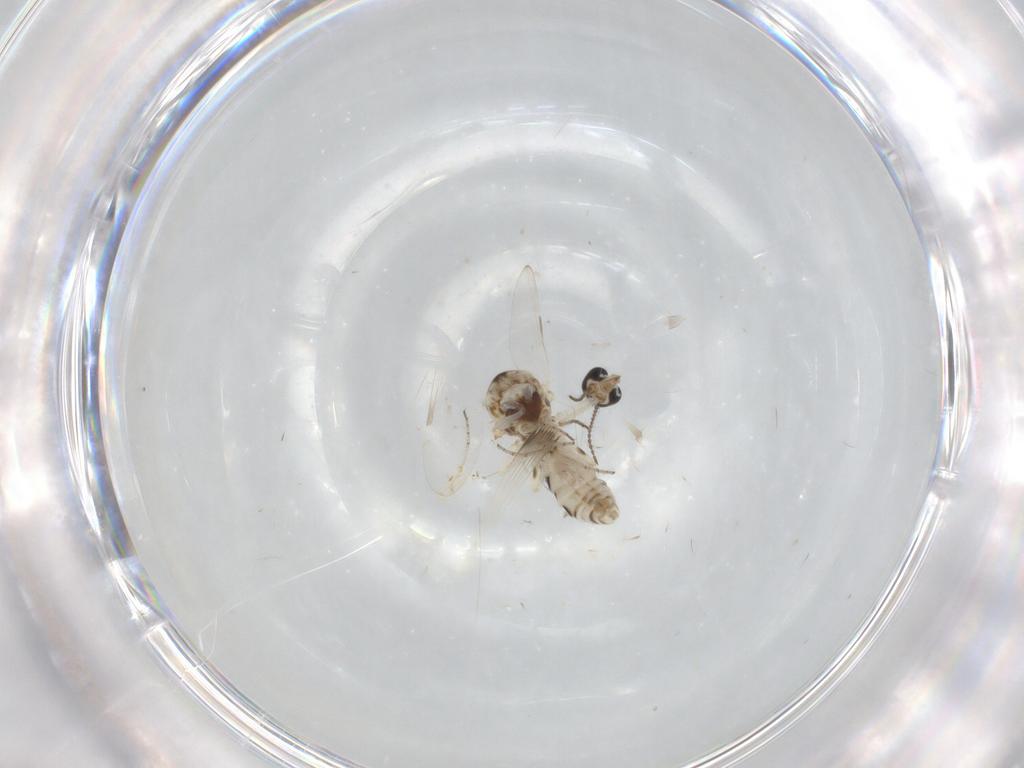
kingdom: Animalia
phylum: Arthropoda
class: Insecta
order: Diptera
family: Ceratopogonidae
